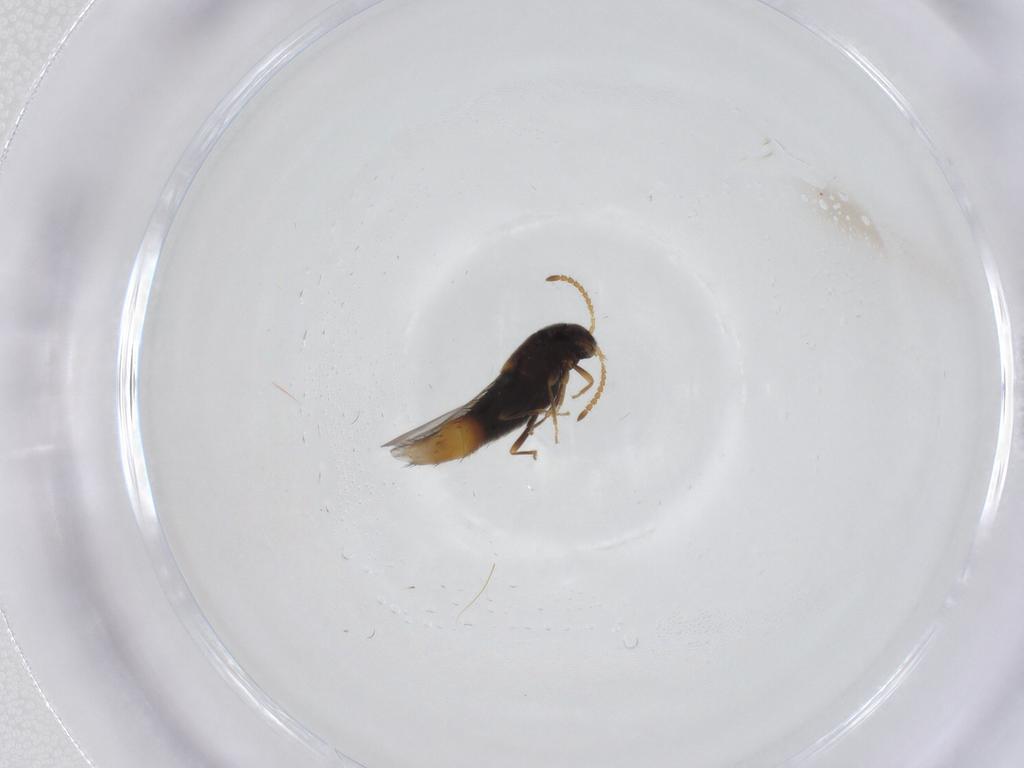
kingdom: Animalia
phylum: Arthropoda
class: Insecta
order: Coleoptera
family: Staphylinidae
